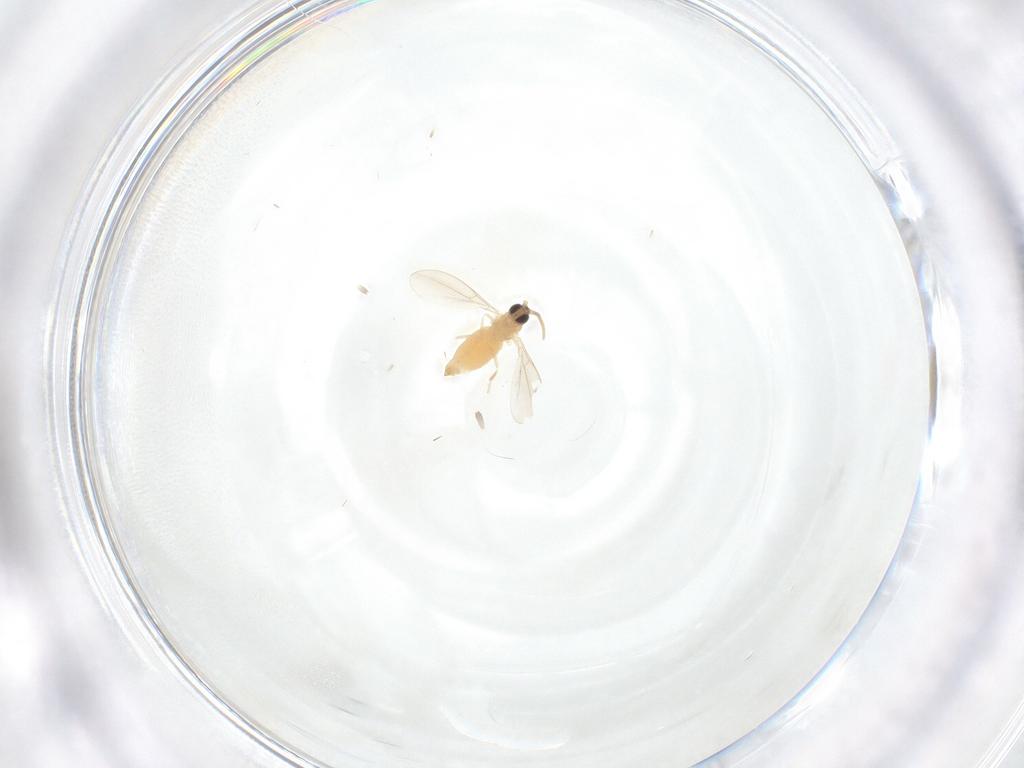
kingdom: Animalia
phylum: Arthropoda
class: Insecta
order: Diptera
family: Cecidomyiidae
